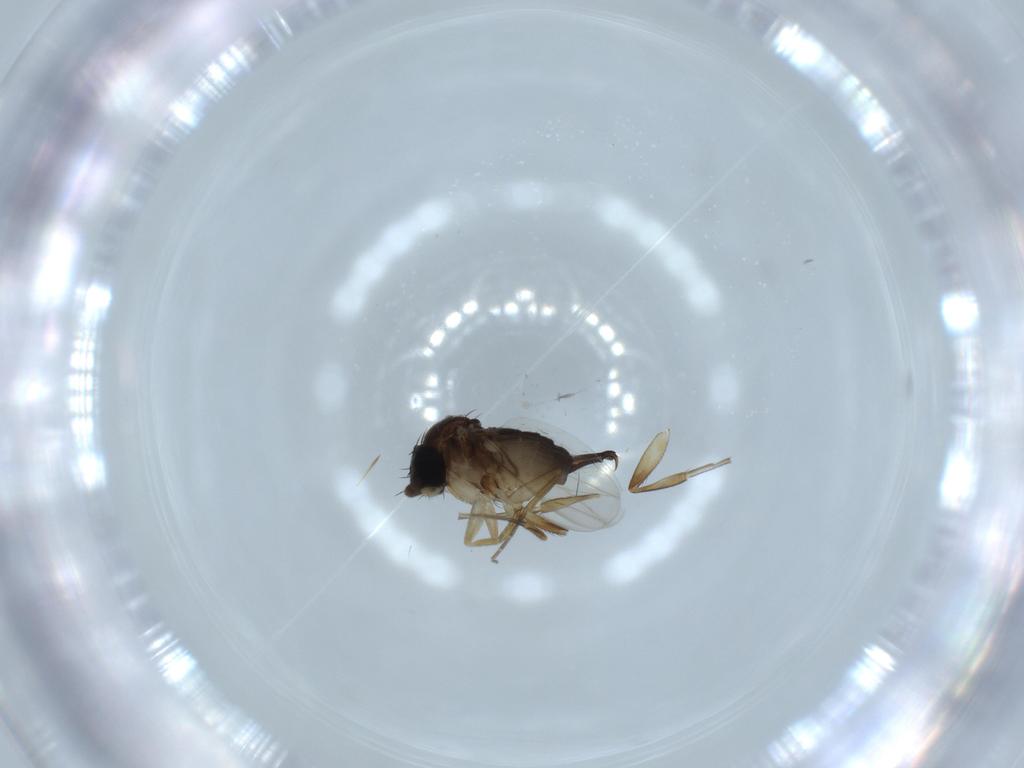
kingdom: Animalia
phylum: Arthropoda
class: Insecta
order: Diptera
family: Phoridae
